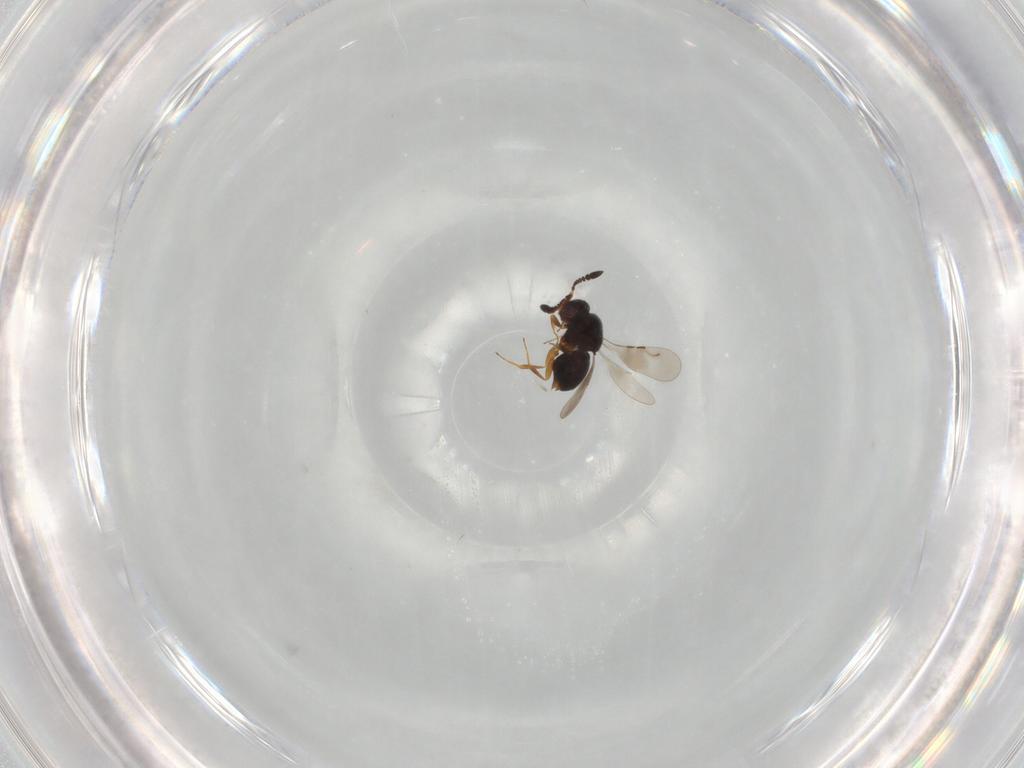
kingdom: Animalia
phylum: Arthropoda
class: Insecta
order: Hymenoptera
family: Ceraphronidae
